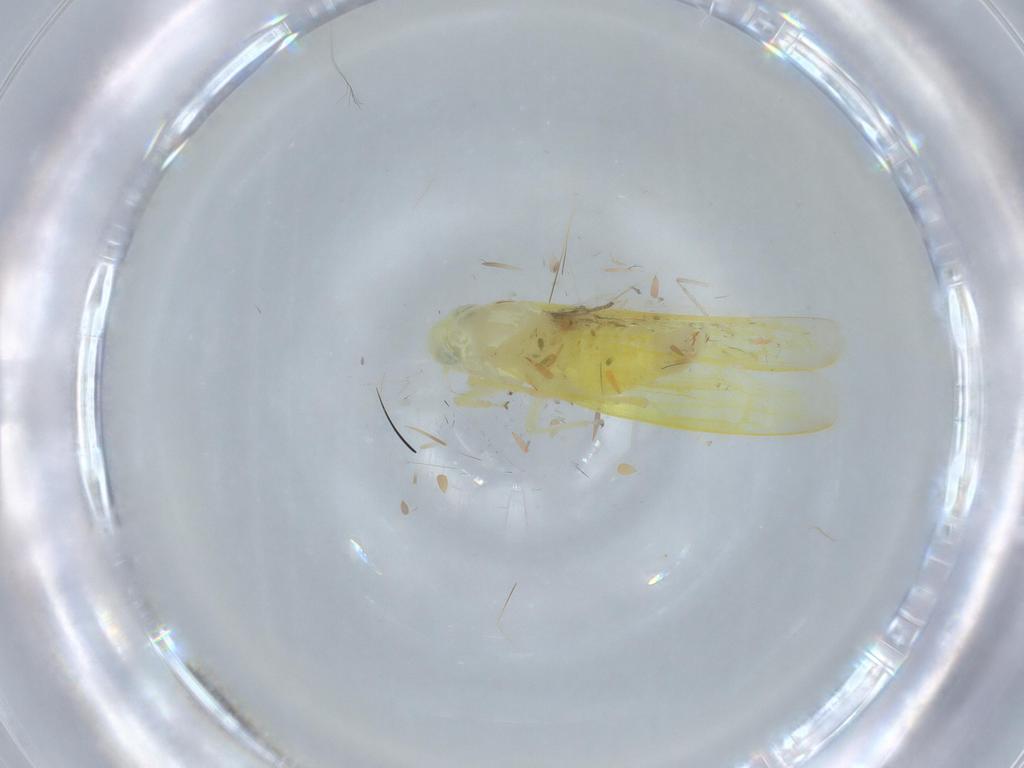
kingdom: Animalia
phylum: Arthropoda
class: Insecta
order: Hemiptera
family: Cicadellidae
